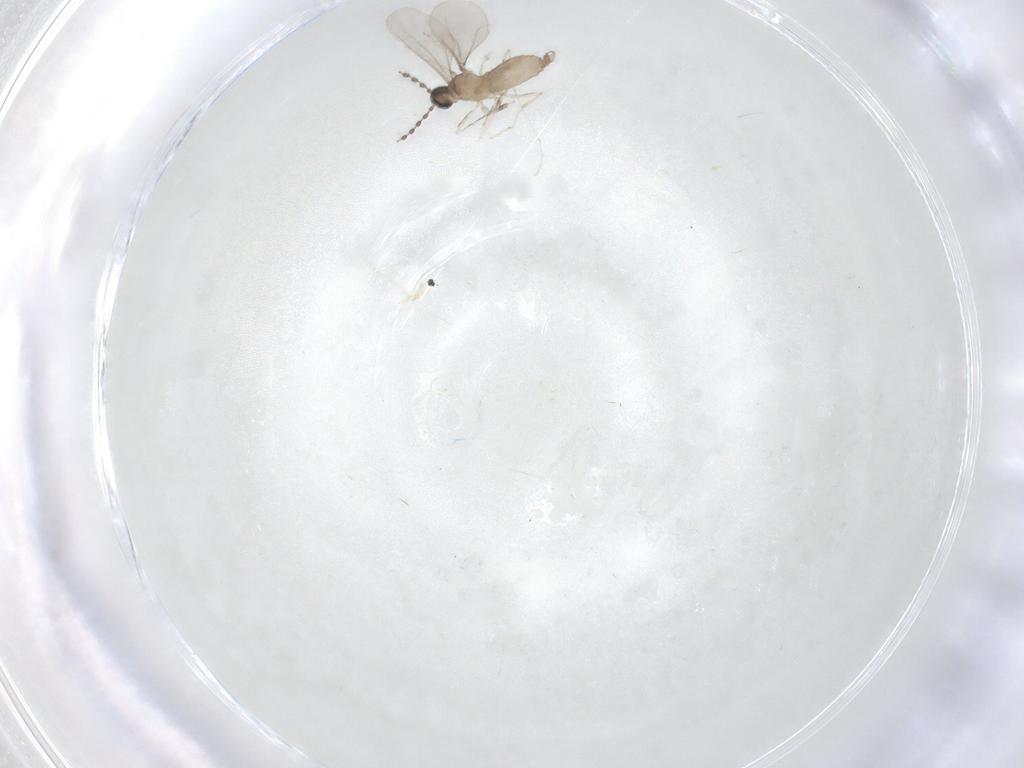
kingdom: Animalia
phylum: Arthropoda
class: Insecta
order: Diptera
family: Cecidomyiidae
